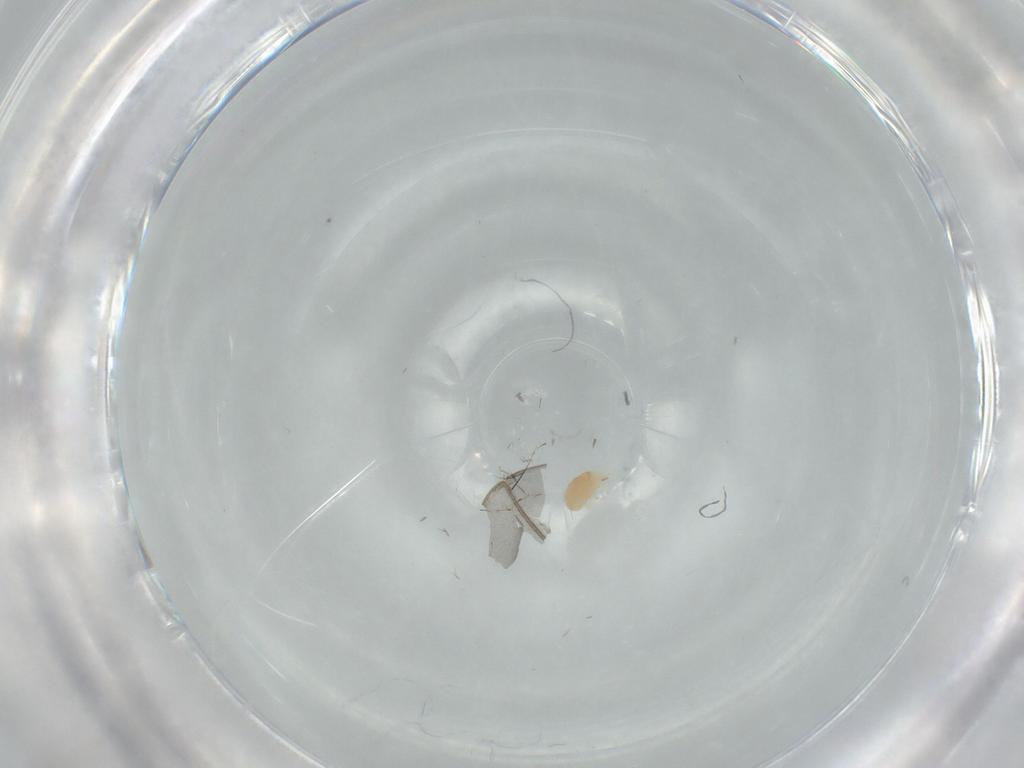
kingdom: Animalia
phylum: Arthropoda
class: Arachnida
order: Trombidiformes
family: Tetranychidae
